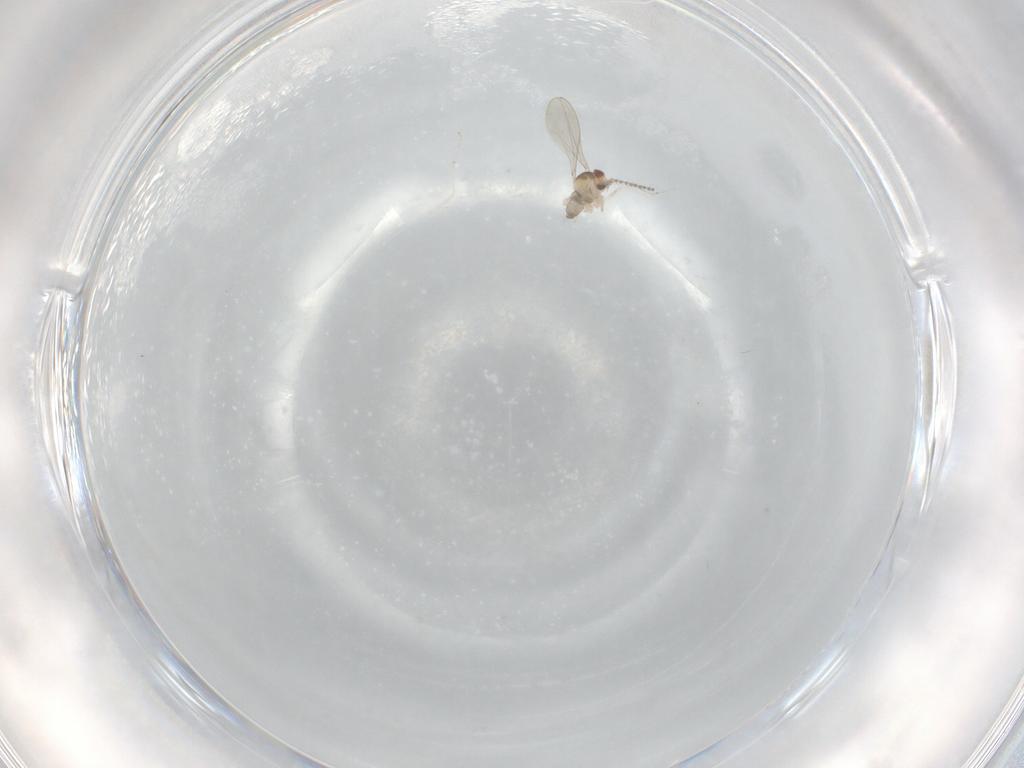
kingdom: Animalia
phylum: Arthropoda
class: Insecta
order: Diptera
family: Cecidomyiidae
